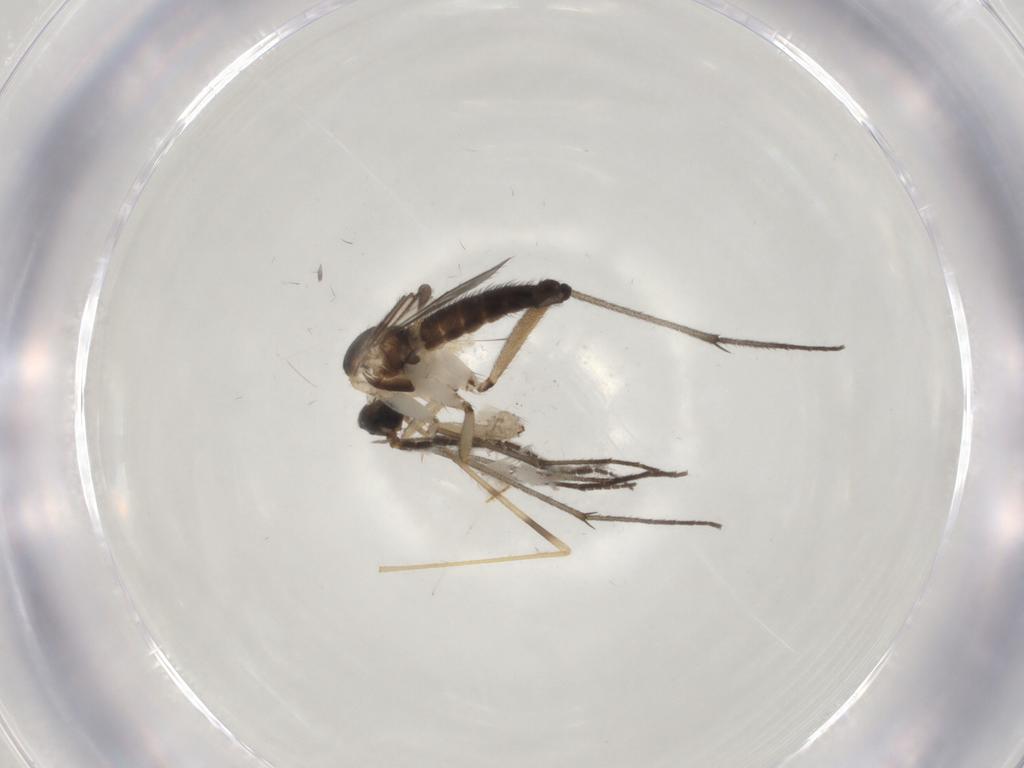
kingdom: Animalia
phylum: Arthropoda
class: Insecta
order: Diptera
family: Limoniidae
